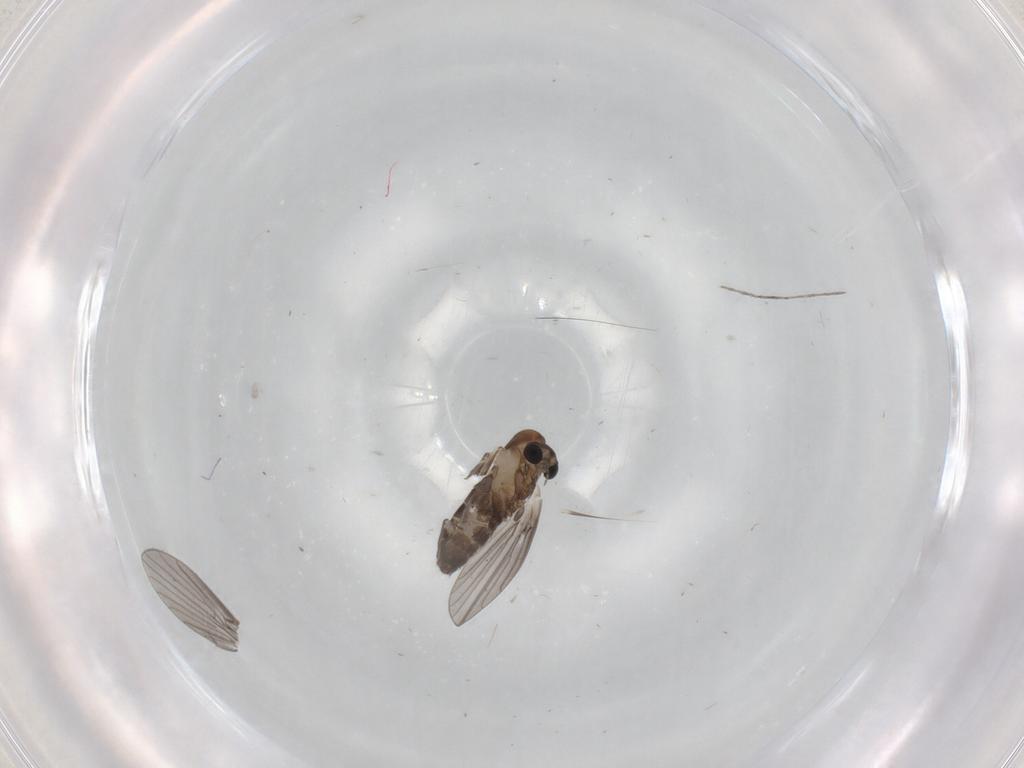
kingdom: Animalia
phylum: Arthropoda
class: Insecta
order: Diptera
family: Psychodidae
